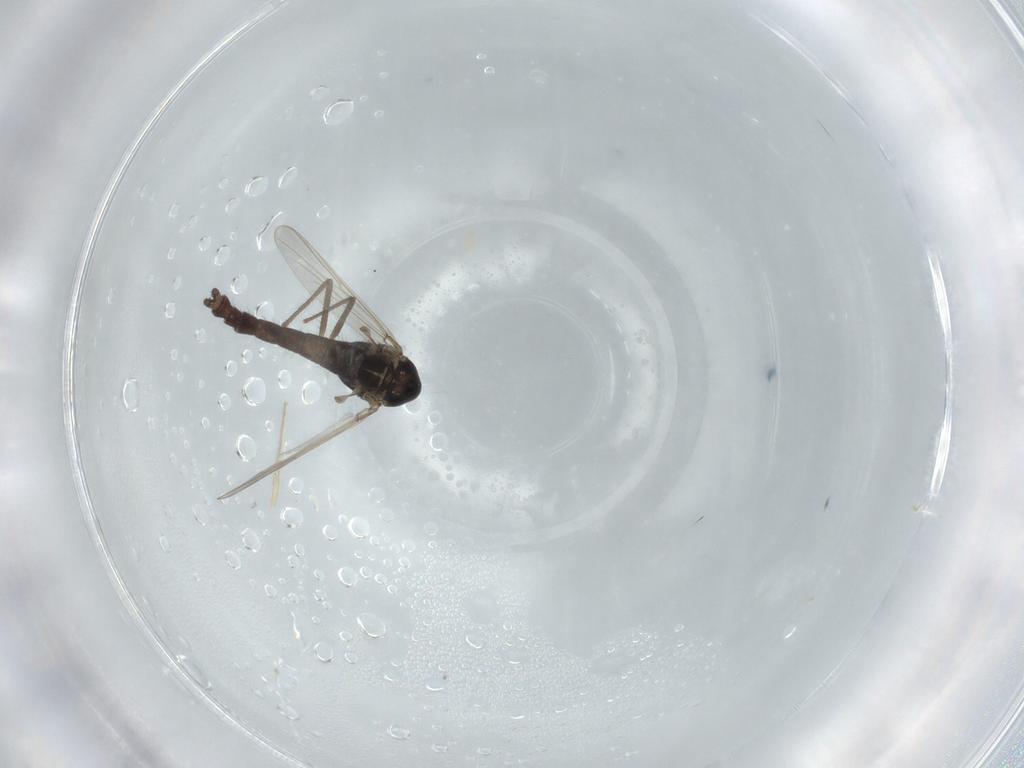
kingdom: Animalia
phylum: Arthropoda
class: Insecta
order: Diptera
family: Chironomidae
